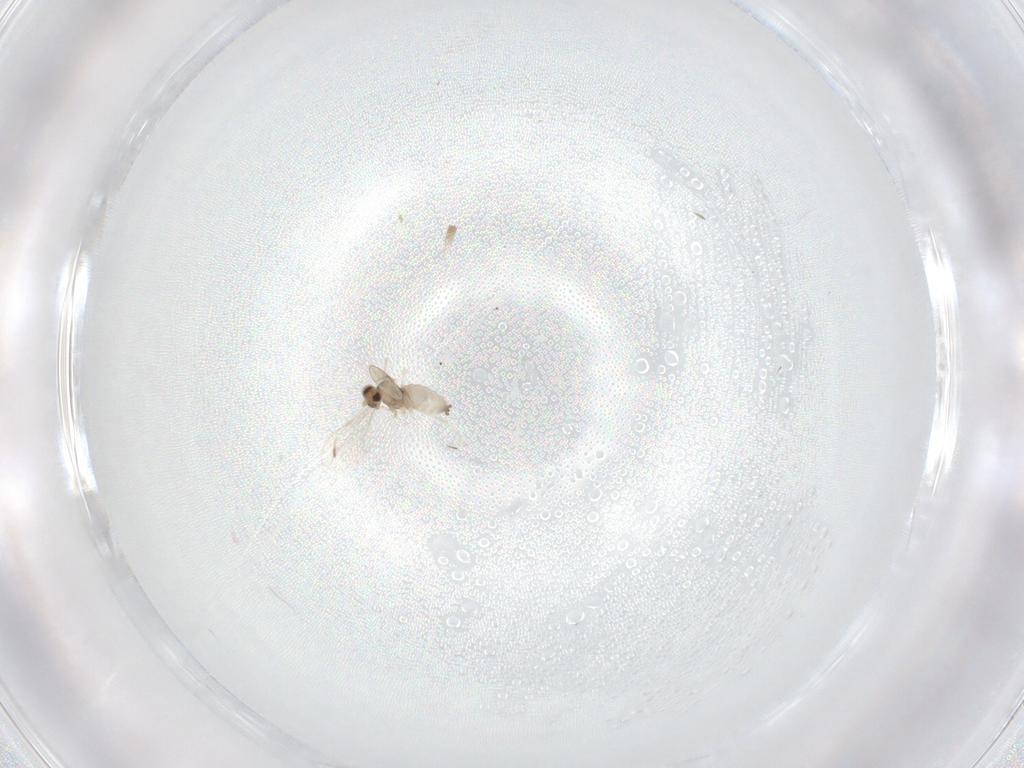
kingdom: Animalia
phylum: Arthropoda
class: Insecta
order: Diptera
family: Cecidomyiidae
